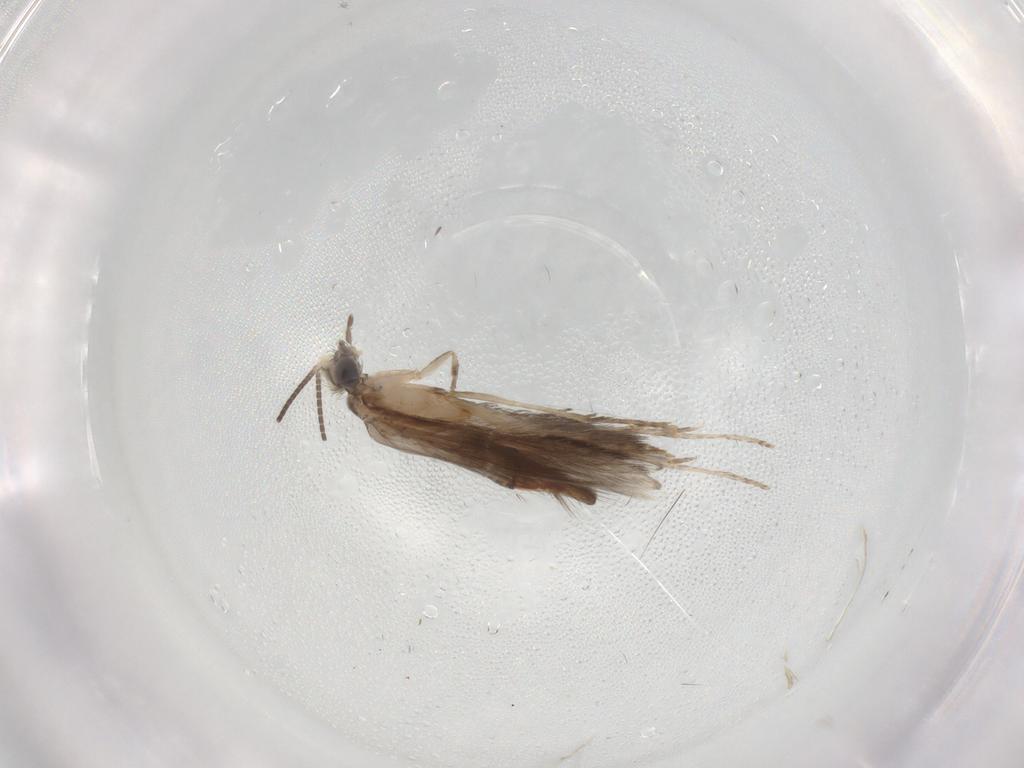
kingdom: Animalia
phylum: Arthropoda
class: Insecta
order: Trichoptera
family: Hydroptilidae
